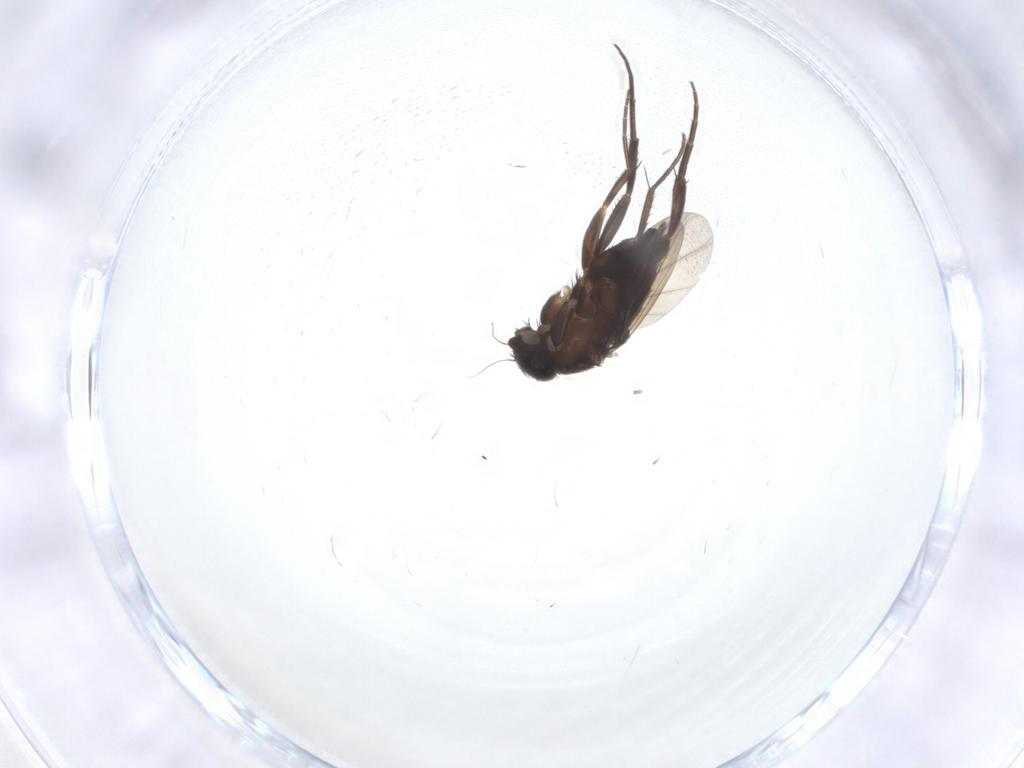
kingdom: Animalia
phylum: Arthropoda
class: Insecta
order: Diptera
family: Phoridae
